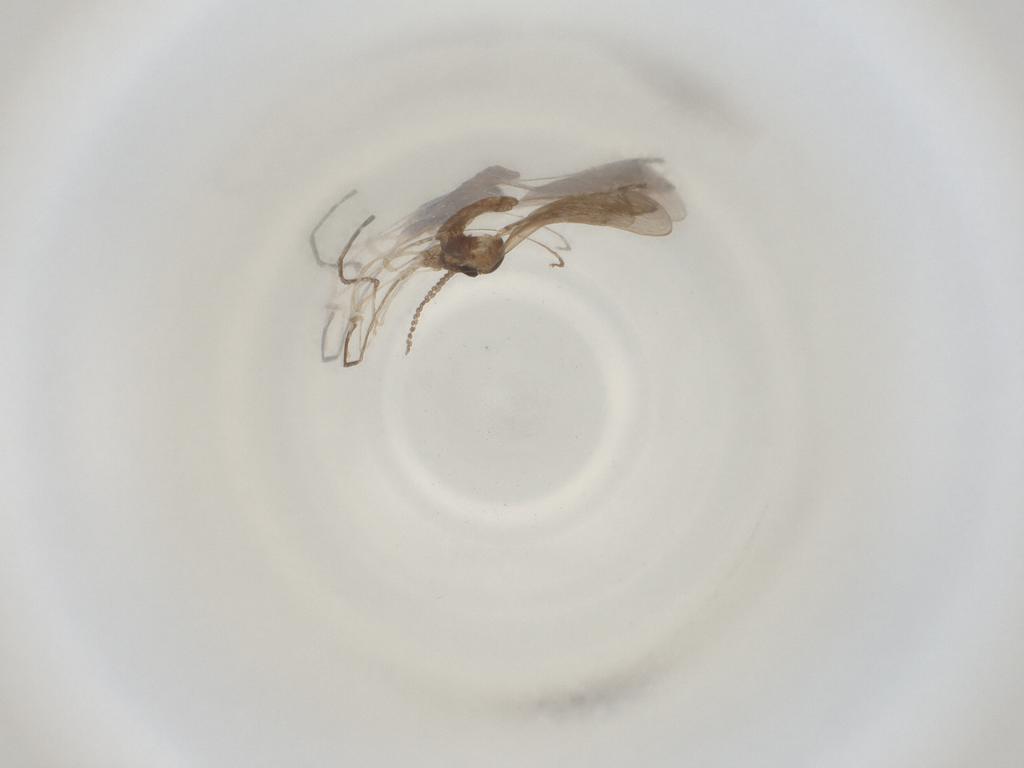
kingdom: Animalia
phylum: Arthropoda
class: Insecta
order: Diptera
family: Cecidomyiidae
